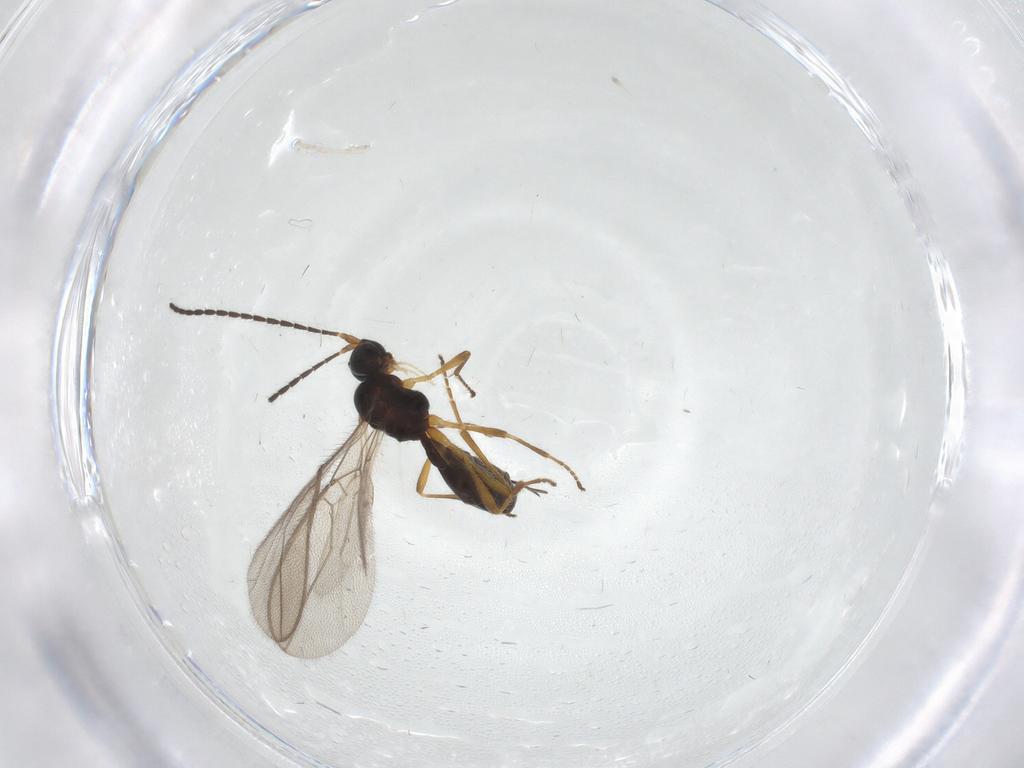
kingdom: Animalia
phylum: Arthropoda
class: Insecta
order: Hymenoptera
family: Braconidae
